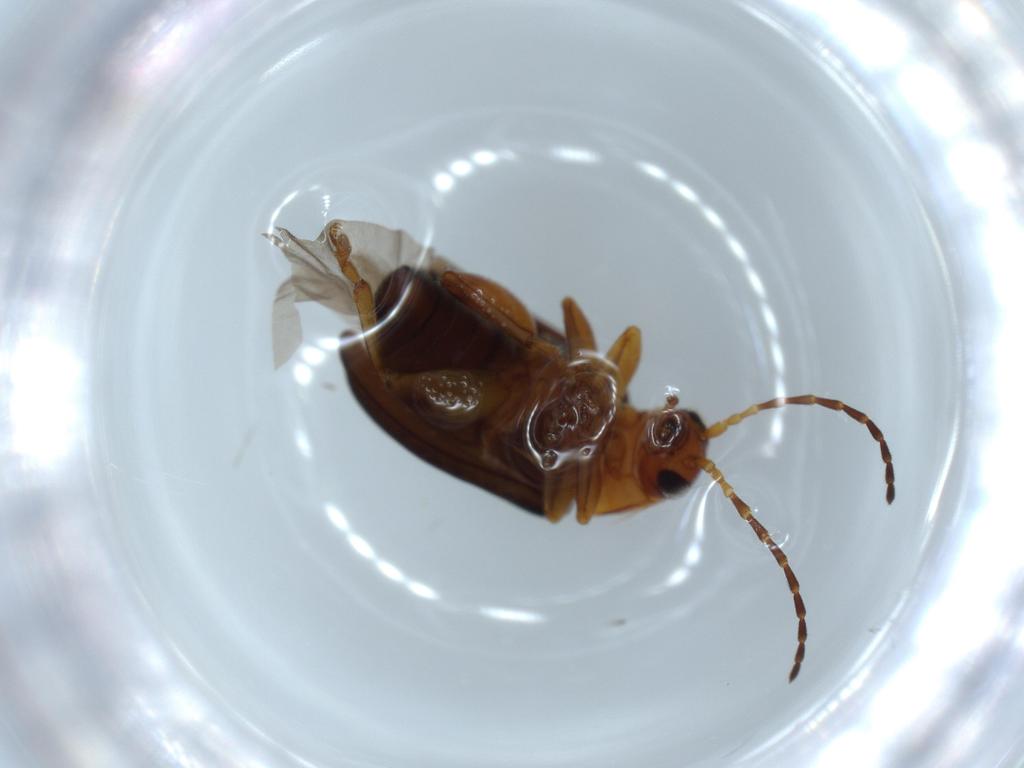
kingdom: Animalia
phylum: Arthropoda
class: Insecta
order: Coleoptera
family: Chrysomelidae
